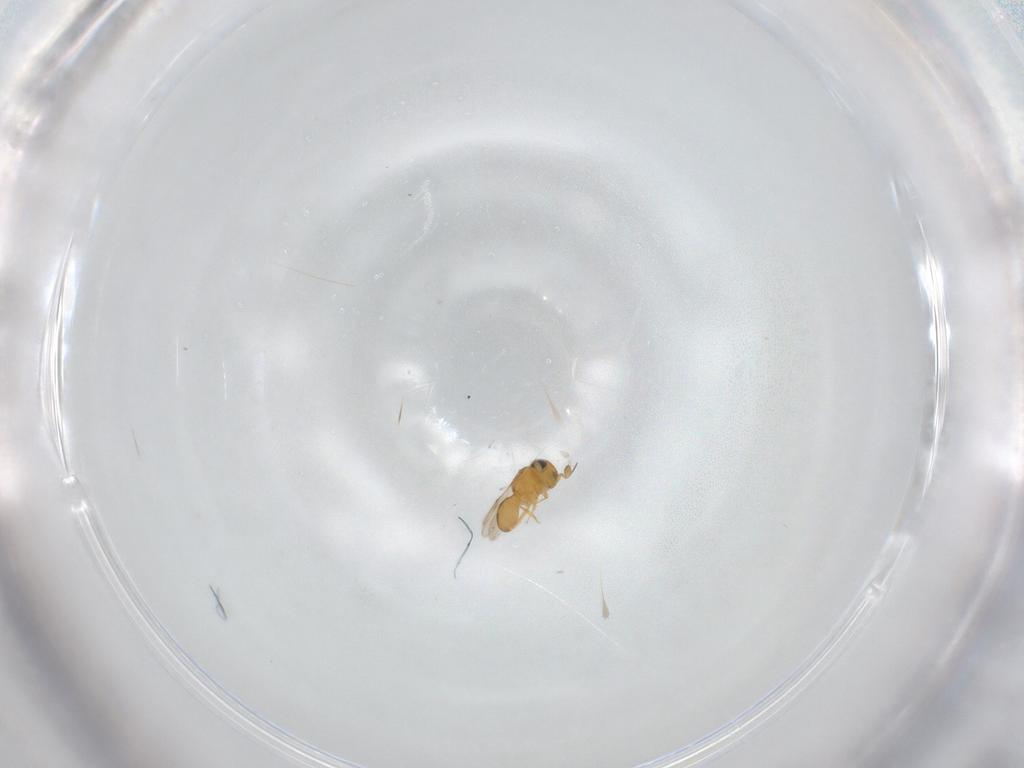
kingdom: Animalia
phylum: Arthropoda
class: Insecta
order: Hymenoptera
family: Scelionidae
